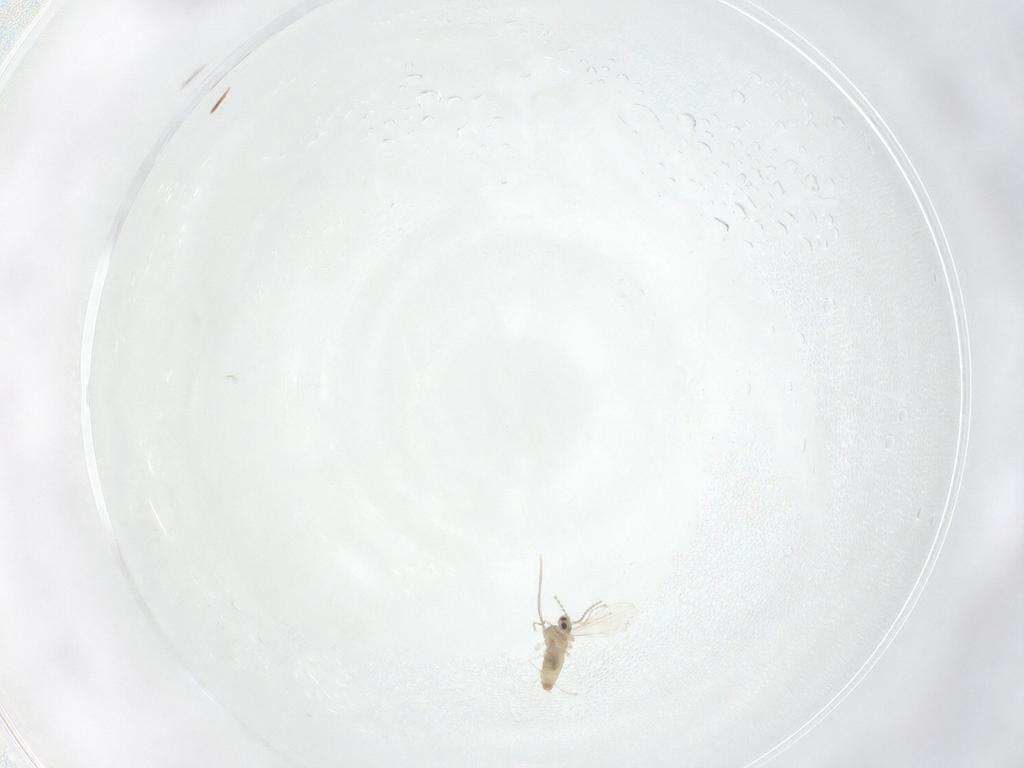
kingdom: Animalia
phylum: Arthropoda
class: Insecta
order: Diptera
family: Cecidomyiidae
